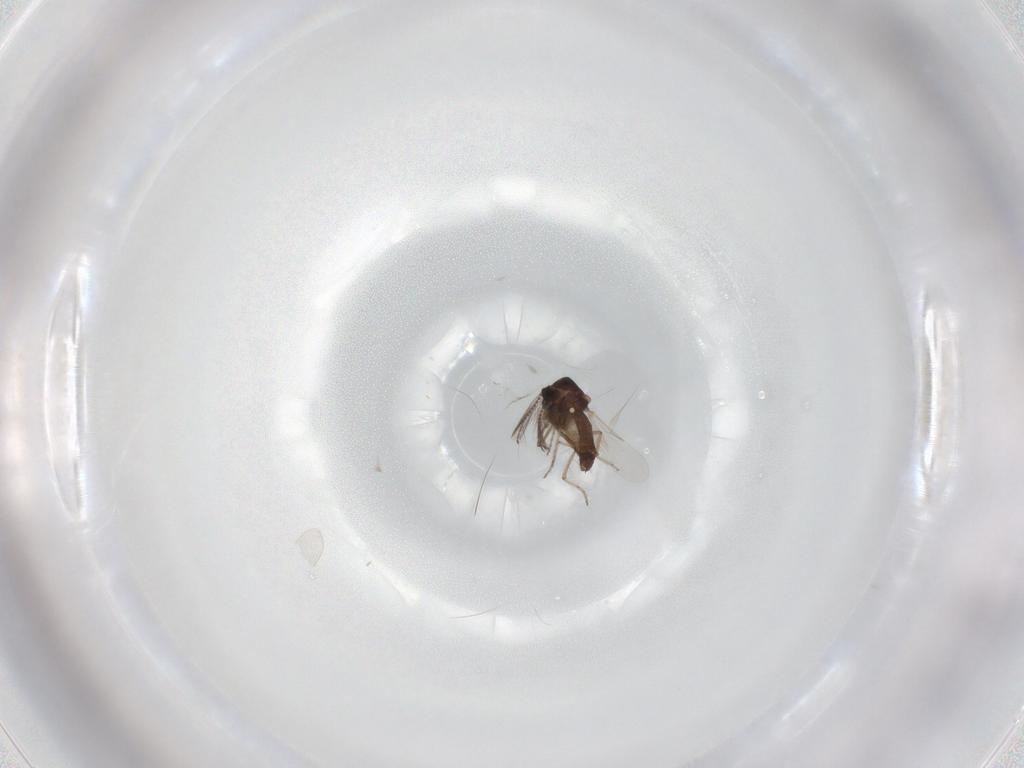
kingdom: Animalia
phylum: Arthropoda
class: Insecta
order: Diptera
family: Ceratopogonidae
